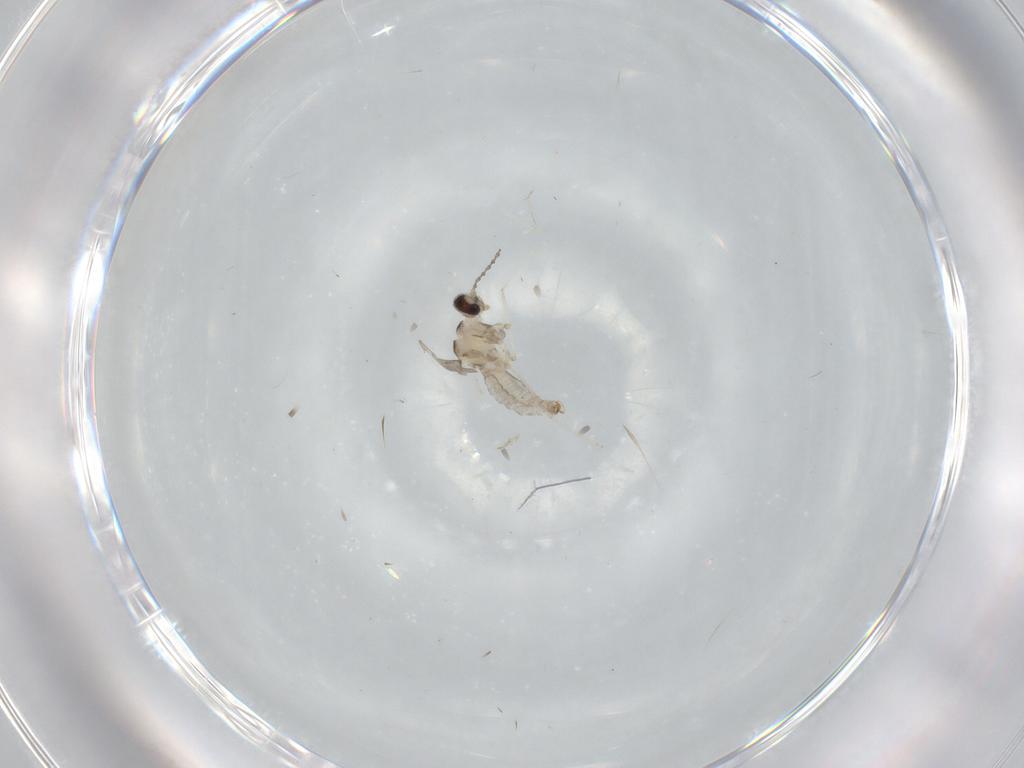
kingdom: Animalia
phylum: Arthropoda
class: Insecta
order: Diptera
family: Cecidomyiidae
